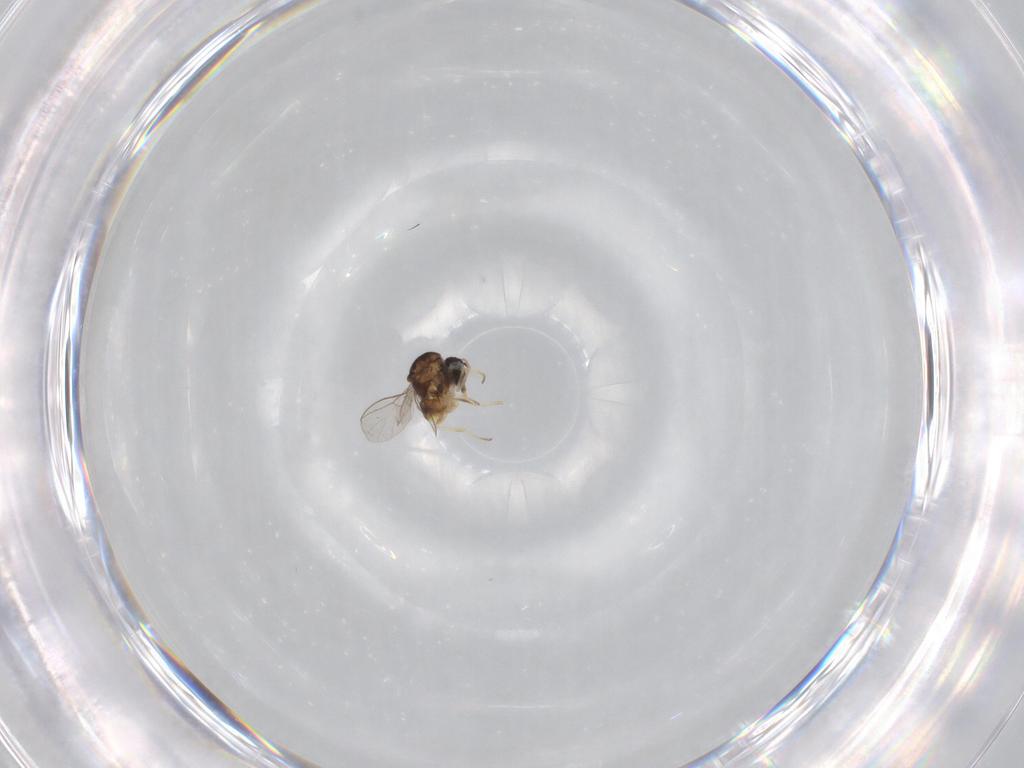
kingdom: Animalia
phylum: Arthropoda
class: Insecta
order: Diptera
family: Bombyliidae
